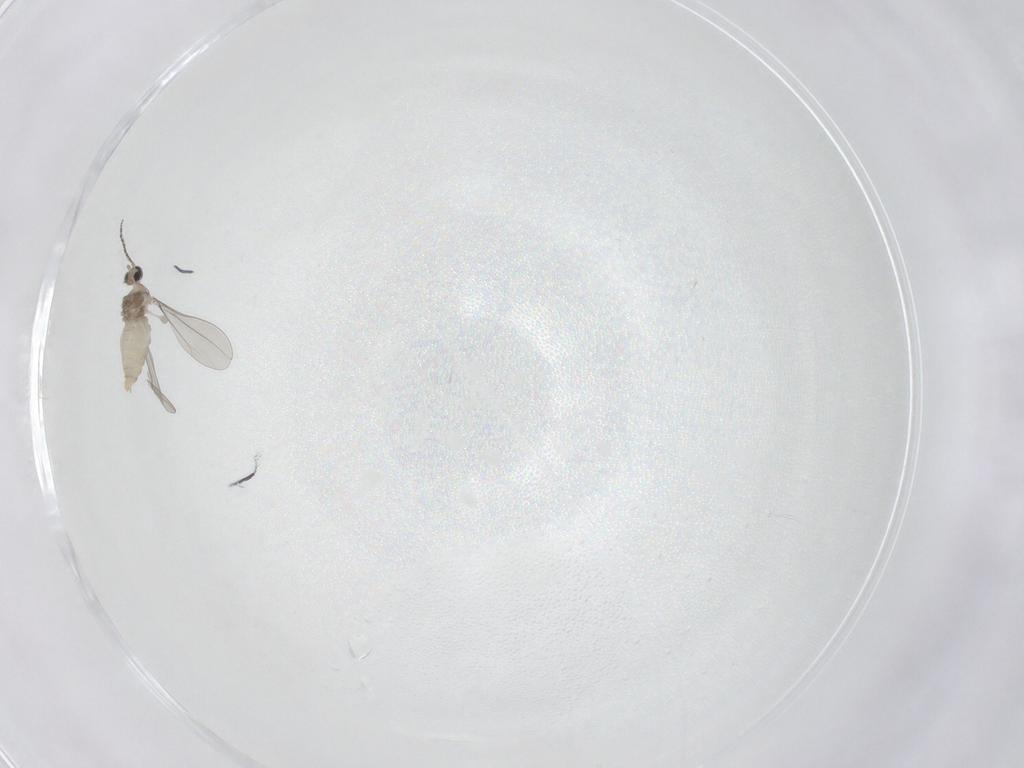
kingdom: Animalia
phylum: Arthropoda
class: Insecta
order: Diptera
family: Cecidomyiidae
